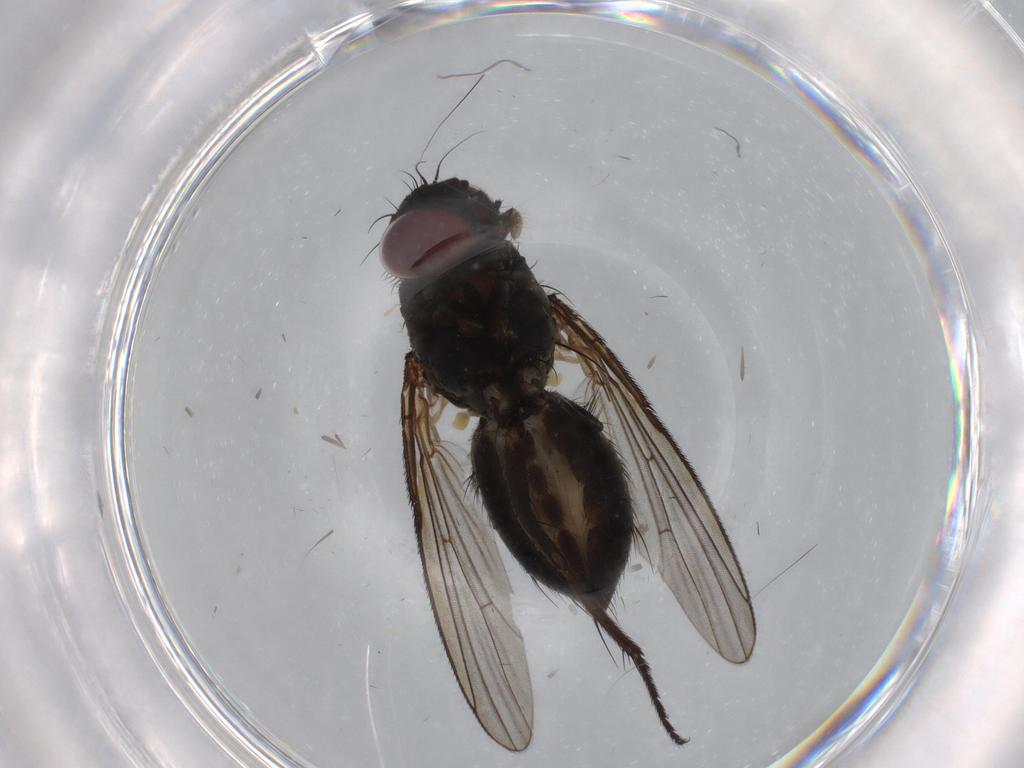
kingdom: Animalia
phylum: Arthropoda
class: Insecta
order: Diptera
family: Muscidae
